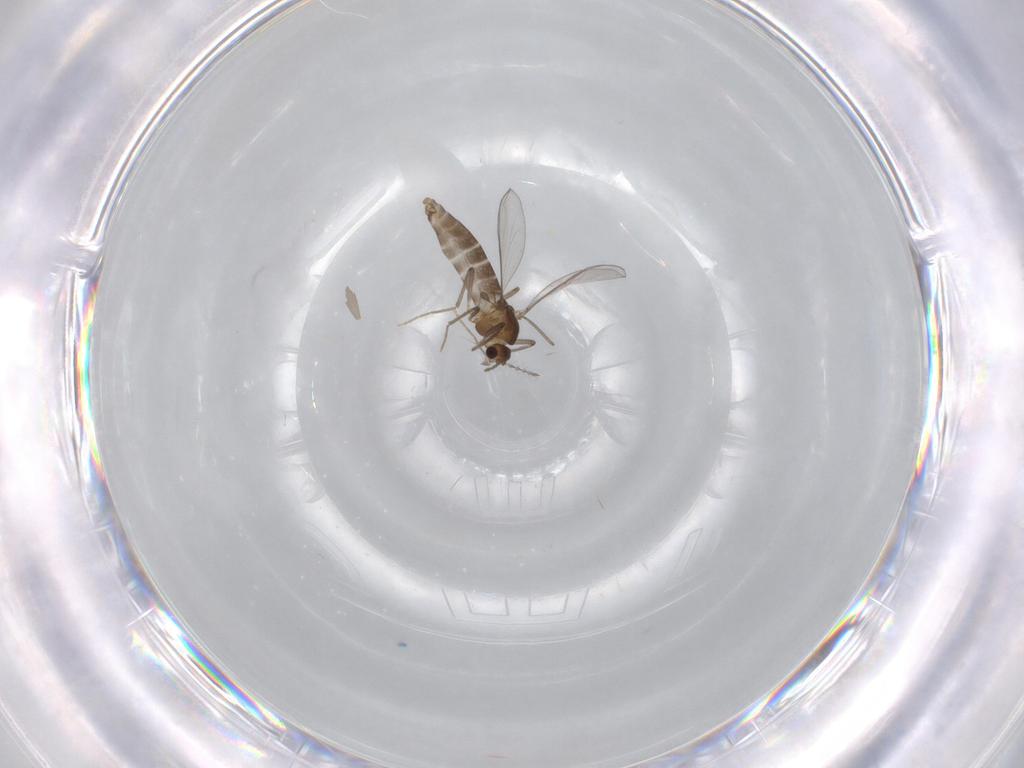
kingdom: Animalia
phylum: Arthropoda
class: Insecta
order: Diptera
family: Chironomidae
